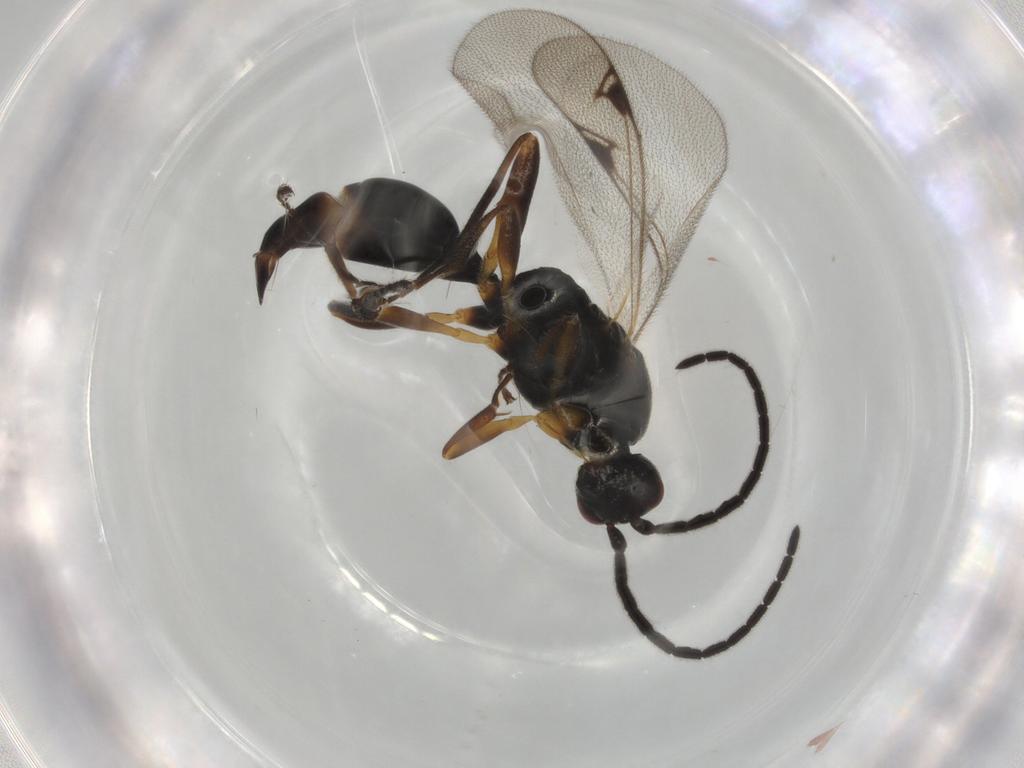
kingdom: Animalia
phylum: Arthropoda
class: Insecta
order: Hymenoptera
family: Proctotrupidae
